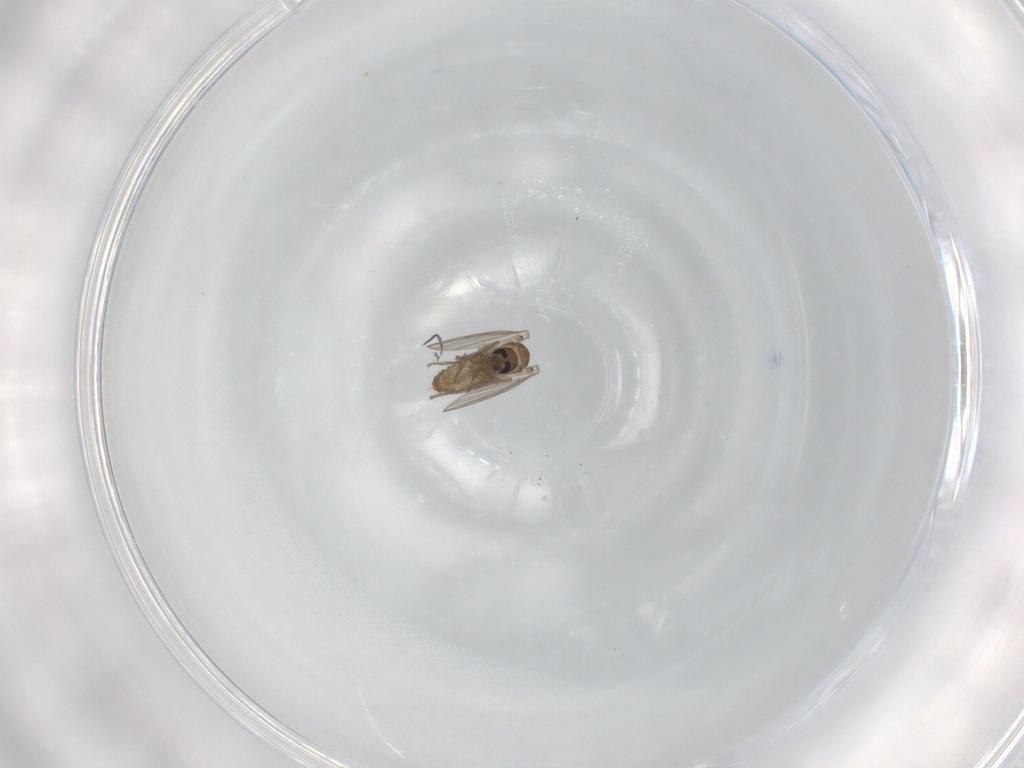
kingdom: Animalia
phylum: Arthropoda
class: Insecta
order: Diptera
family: Psychodidae
